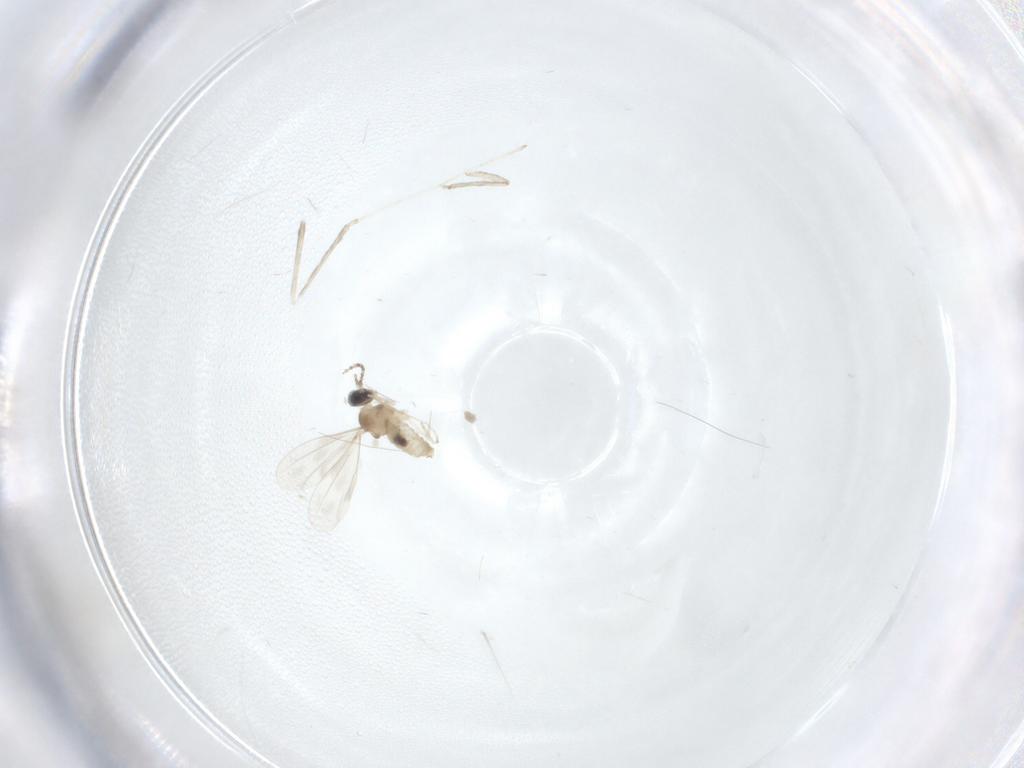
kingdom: Animalia
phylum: Arthropoda
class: Insecta
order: Diptera
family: Cecidomyiidae
